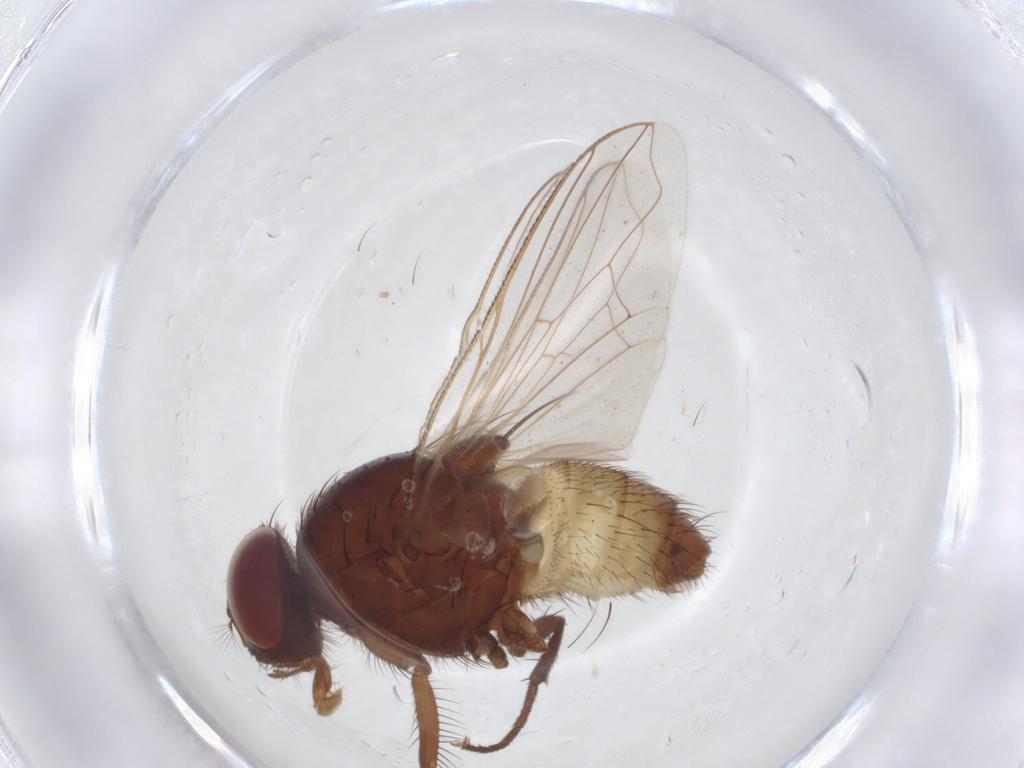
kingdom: Animalia
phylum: Arthropoda
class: Insecta
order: Diptera
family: Muscidae
